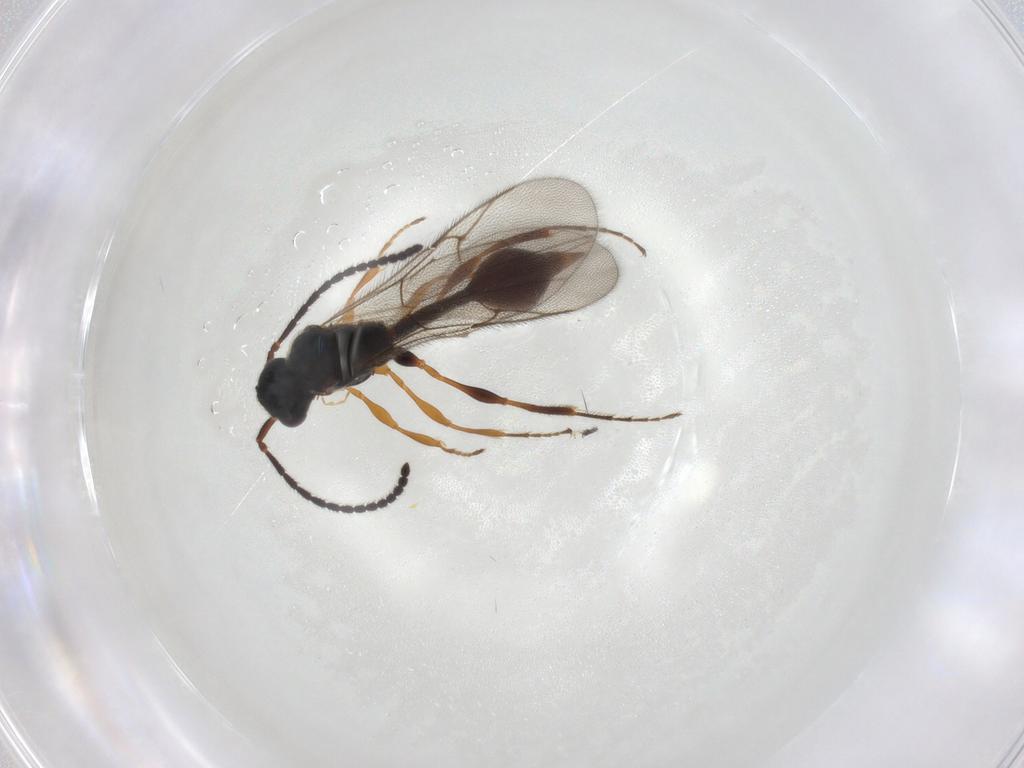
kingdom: Animalia
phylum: Arthropoda
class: Insecta
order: Hymenoptera
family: Diapriidae
